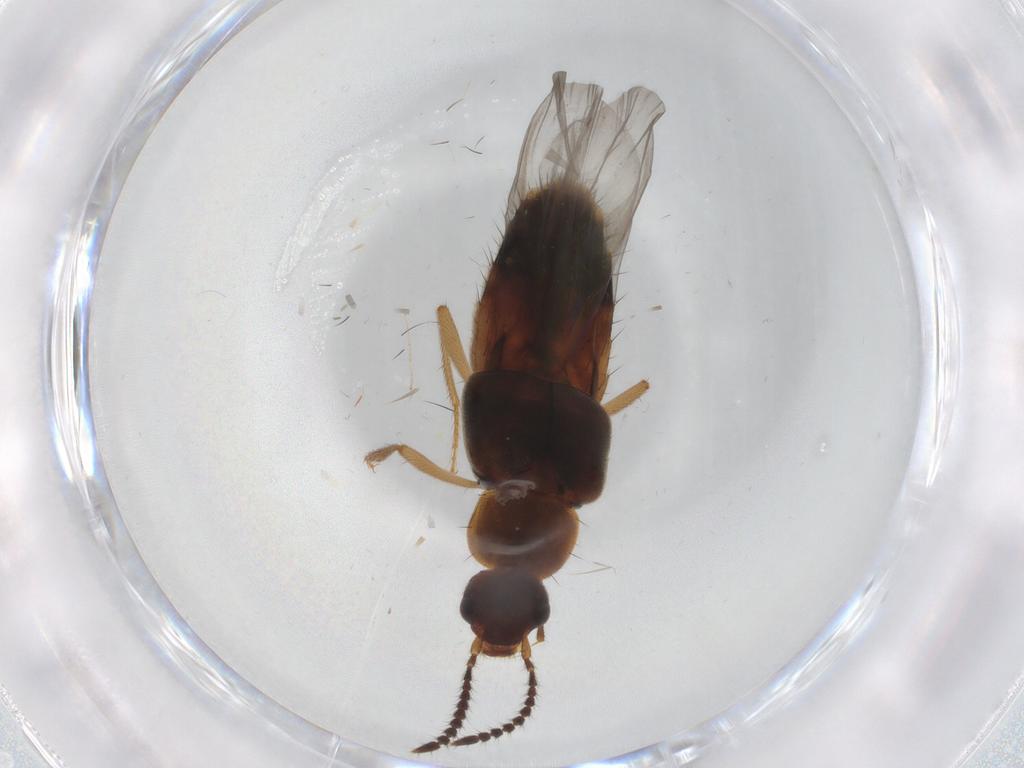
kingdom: Animalia
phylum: Arthropoda
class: Insecta
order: Coleoptera
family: Staphylinidae
